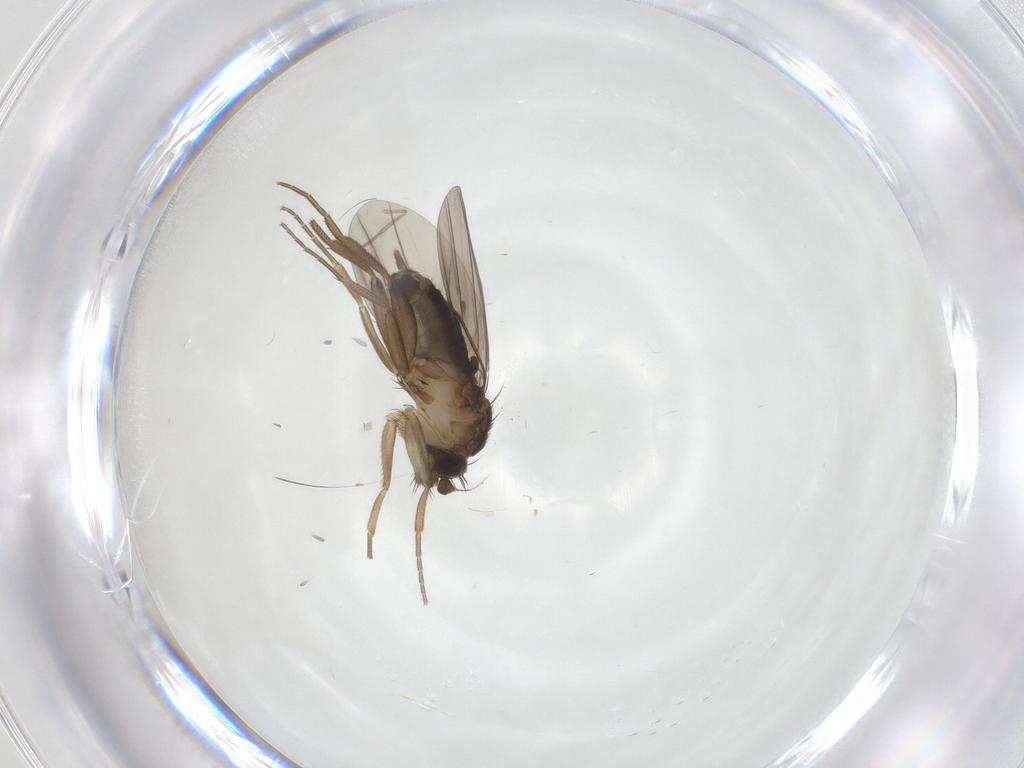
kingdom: Animalia
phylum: Arthropoda
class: Insecta
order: Diptera
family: Phoridae
